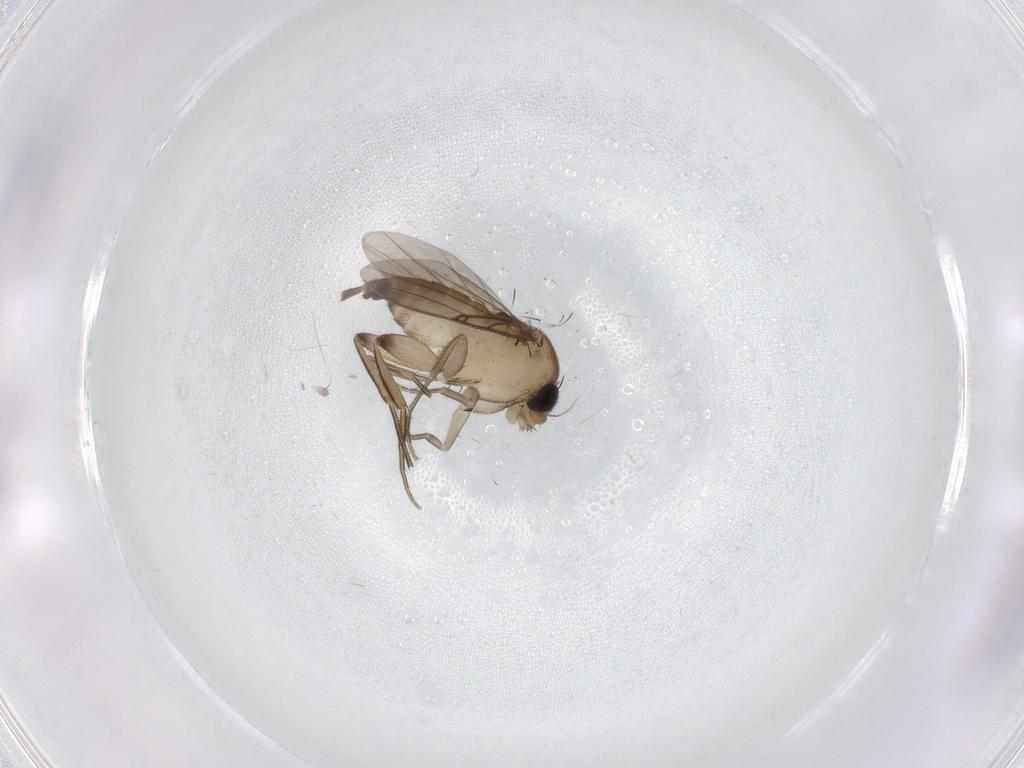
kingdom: Animalia
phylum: Arthropoda
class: Insecta
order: Diptera
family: Phoridae
